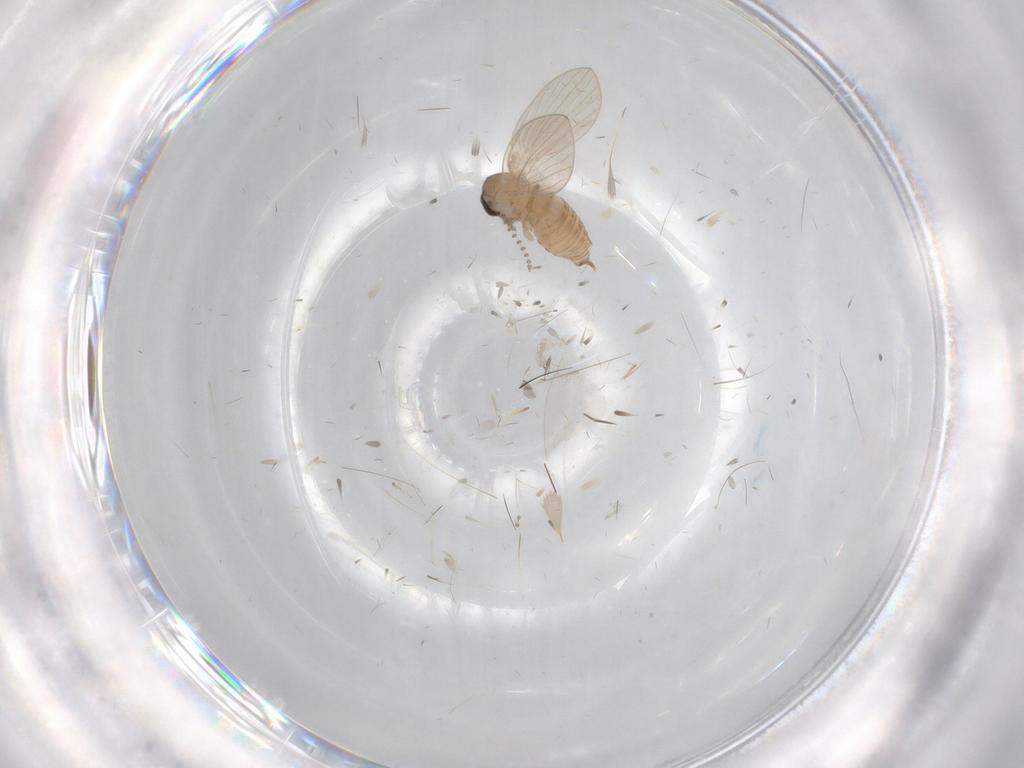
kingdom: Animalia
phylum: Arthropoda
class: Insecta
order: Diptera
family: Psychodidae
